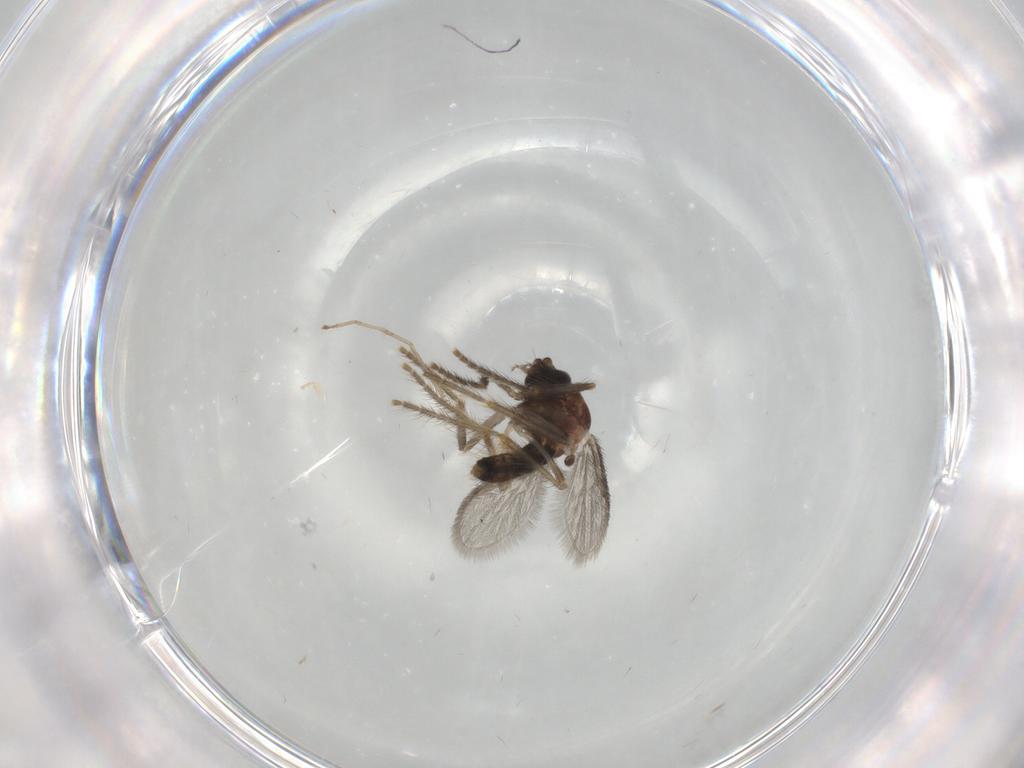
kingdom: Animalia
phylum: Arthropoda
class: Insecta
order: Diptera
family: Corethrellidae
